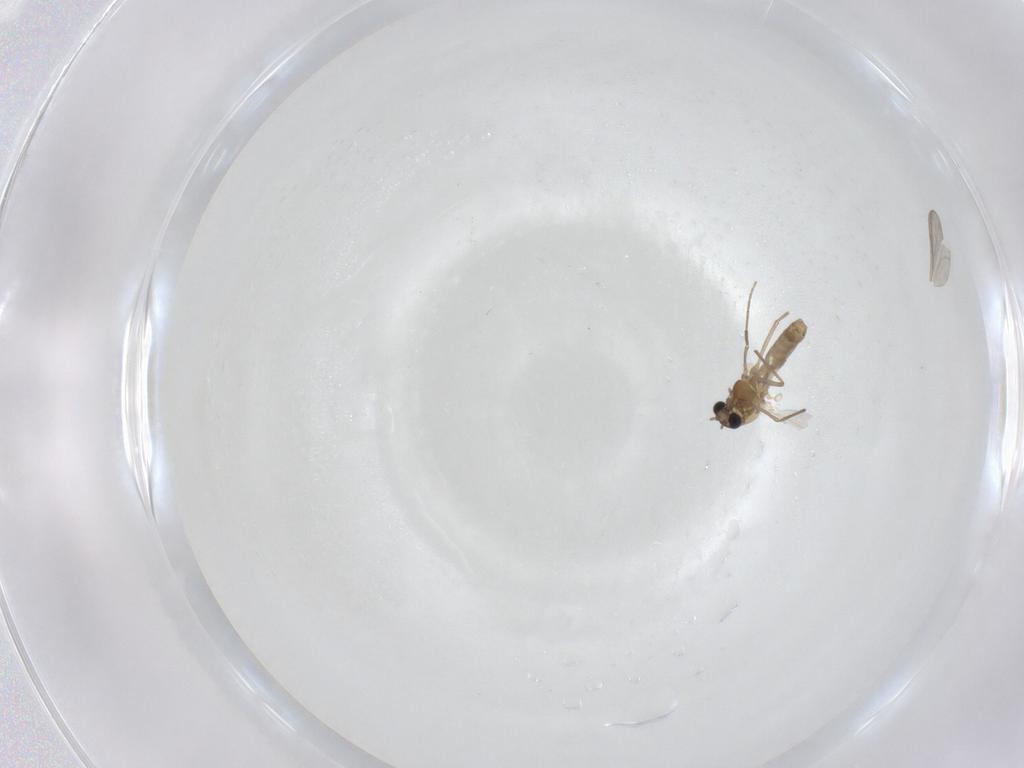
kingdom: Animalia
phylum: Arthropoda
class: Insecta
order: Diptera
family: Chironomidae
